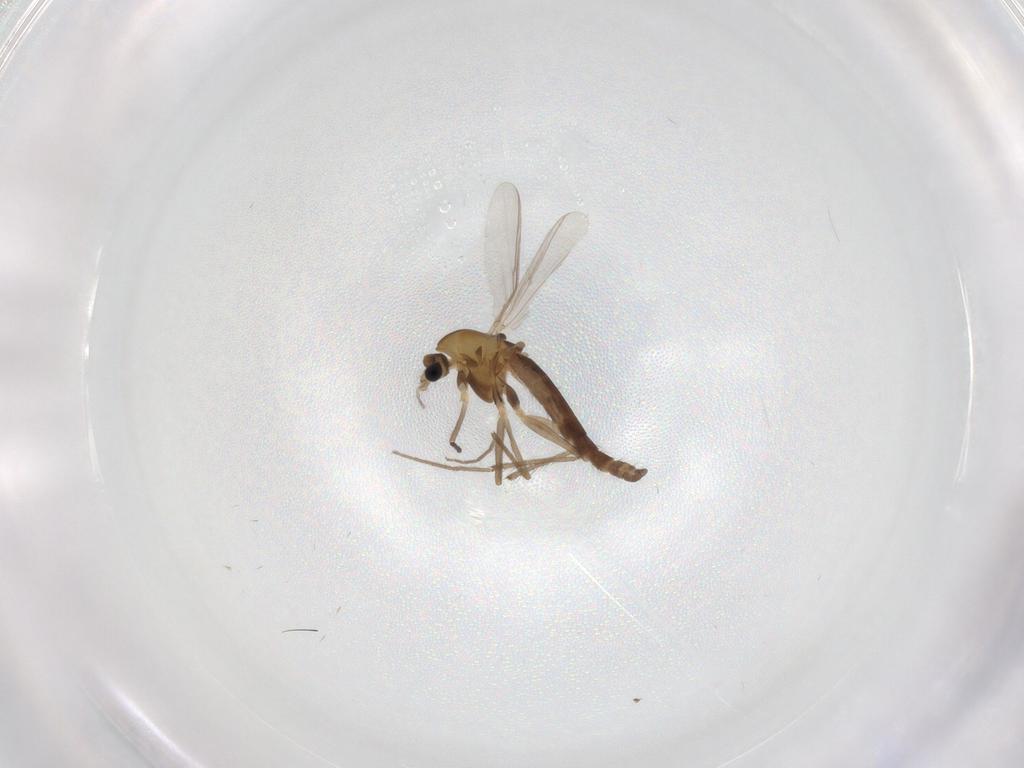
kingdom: Animalia
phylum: Arthropoda
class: Insecta
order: Diptera
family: Chironomidae
